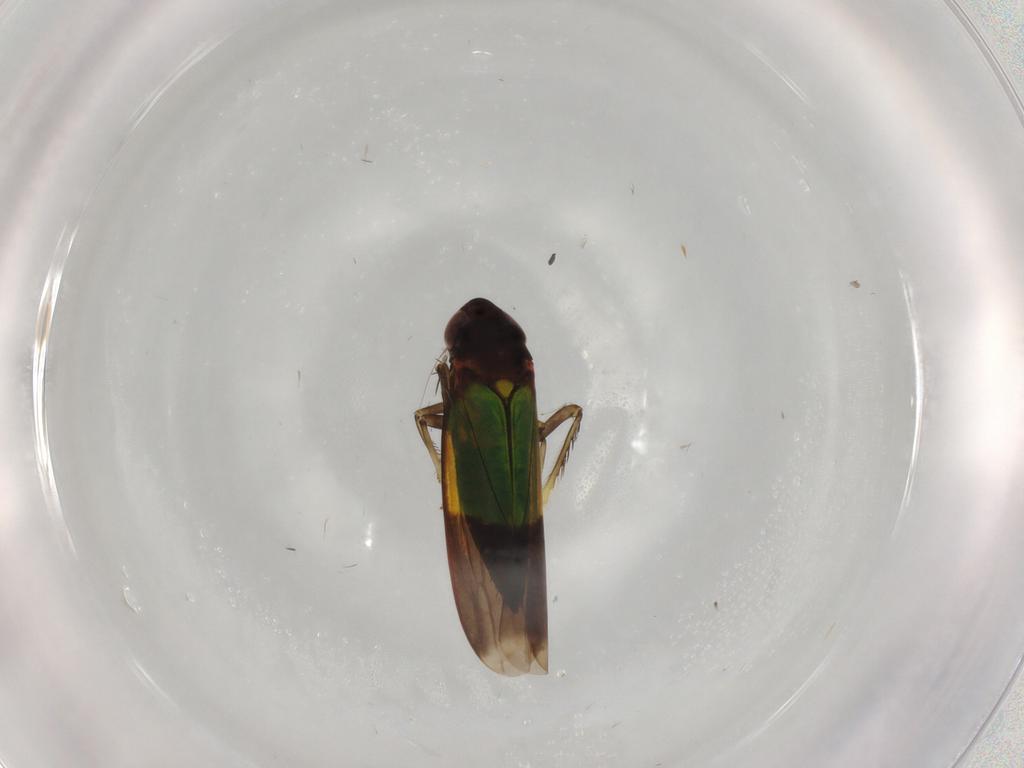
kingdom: Animalia
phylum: Arthropoda
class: Insecta
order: Hemiptera
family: Cicadellidae
